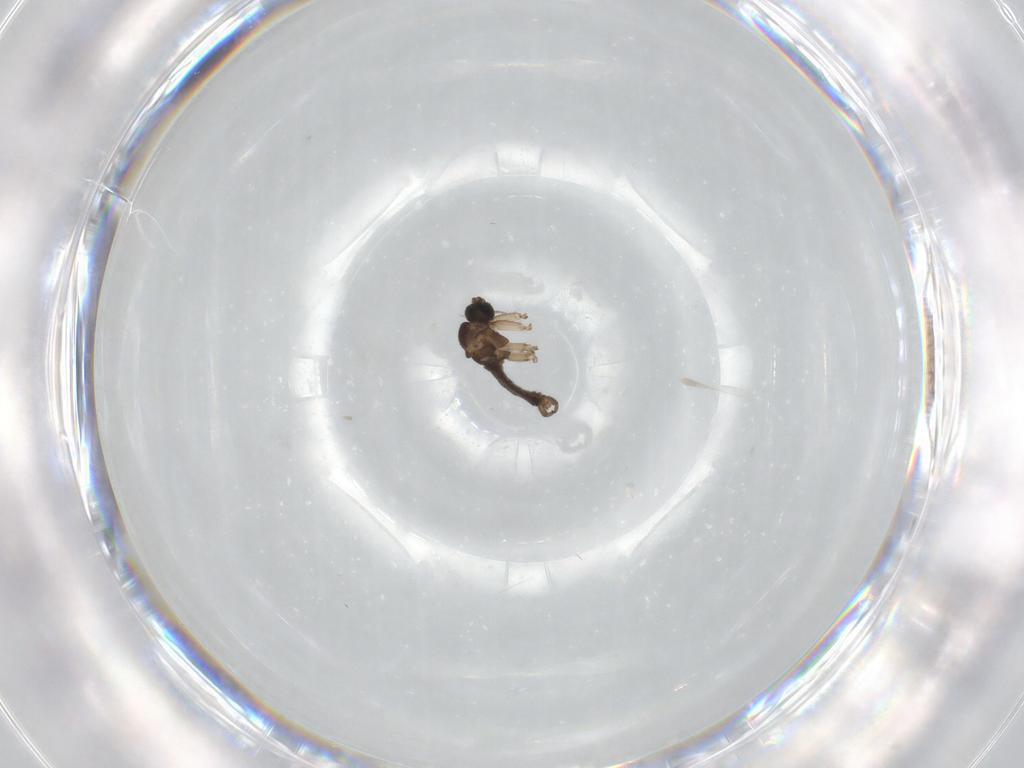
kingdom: Animalia
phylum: Arthropoda
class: Insecta
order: Diptera
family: Sciaridae
